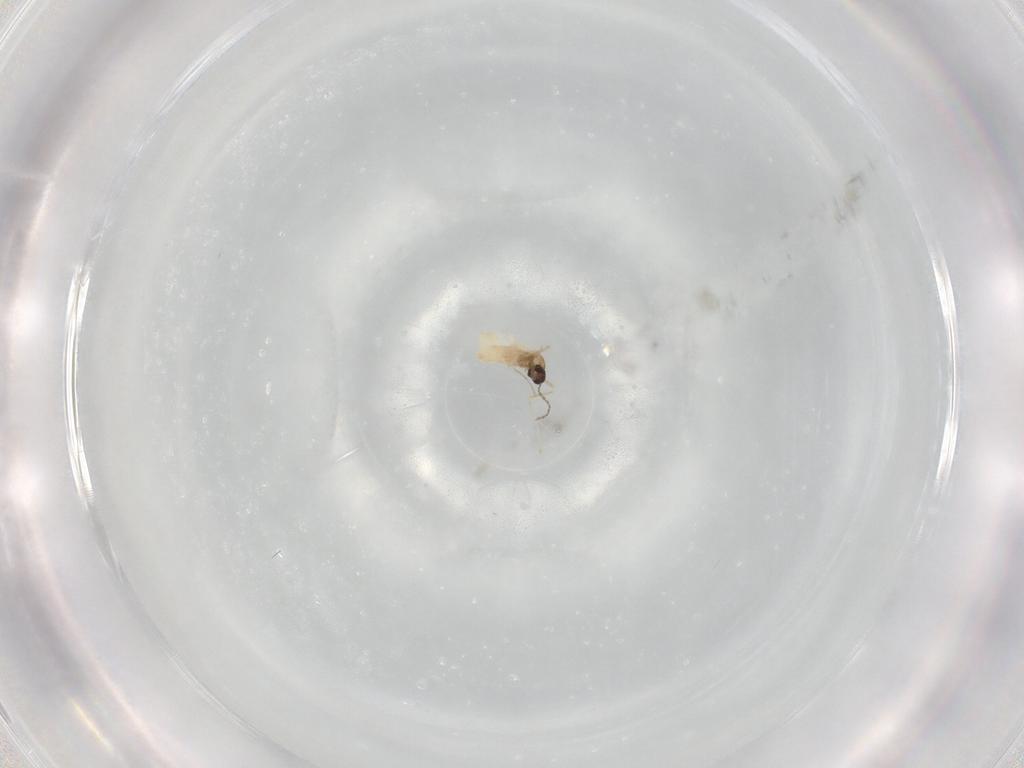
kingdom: Animalia
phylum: Arthropoda
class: Insecta
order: Diptera
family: Cecidomyiidae
